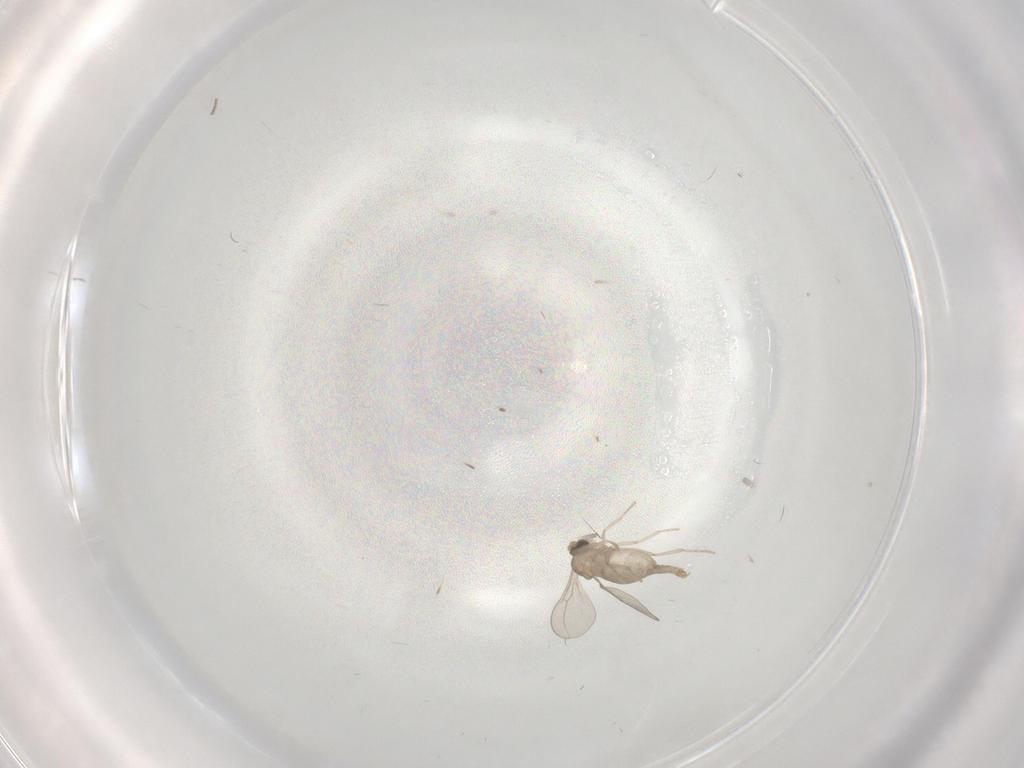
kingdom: Animalia
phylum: Arthropoda
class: Insecta
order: Diptera
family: Cecidomyiidae
